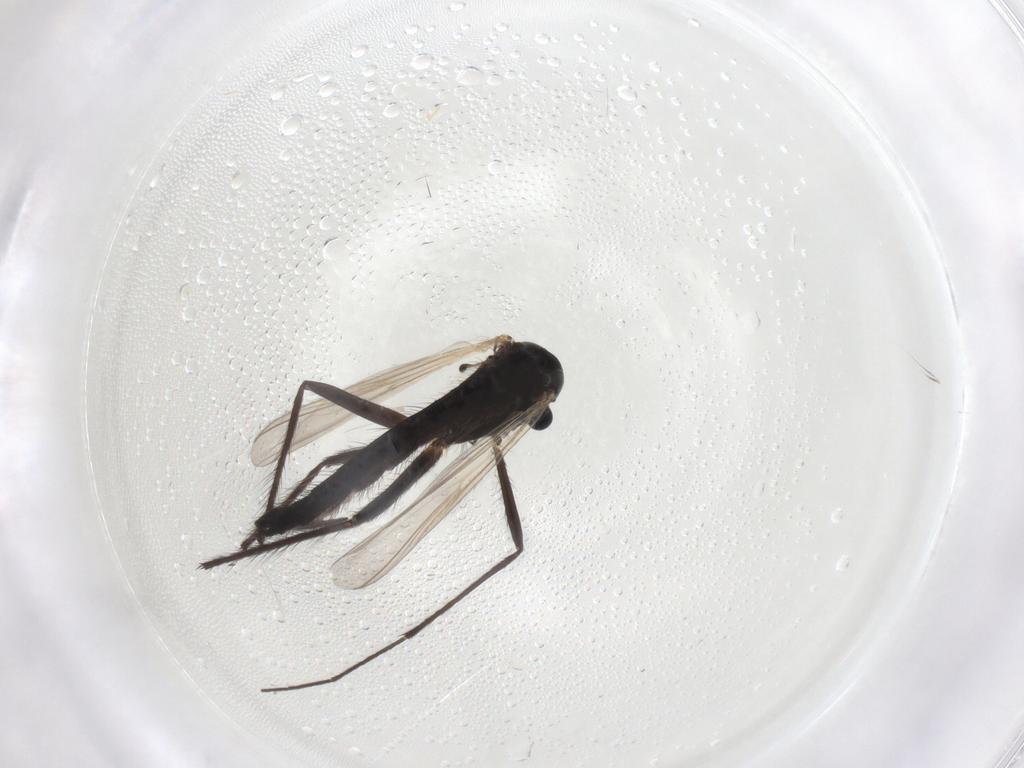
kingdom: Animalia
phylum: Arthropoda
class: Insecta
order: Diptera
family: Chironomidae
